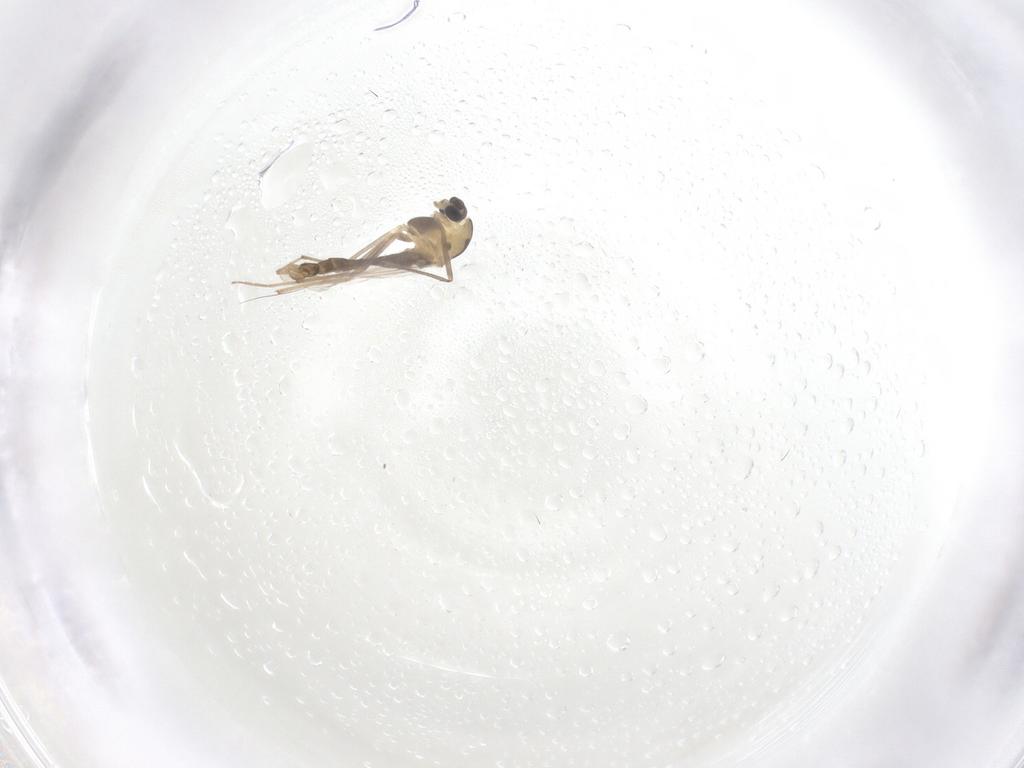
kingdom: Animalia
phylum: Arthropoda
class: Insecta
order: Diptera
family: Chironomidae
